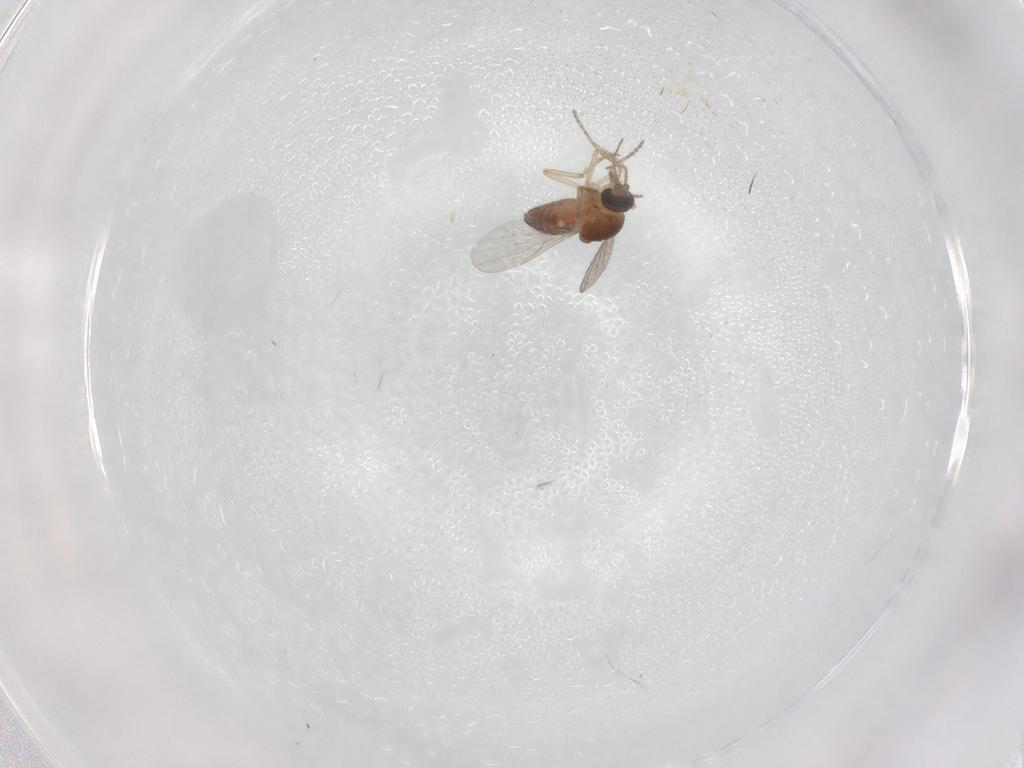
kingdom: Animalia
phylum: Arthropoda
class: Insecta
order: Diptera
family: Ceratopogonidae
